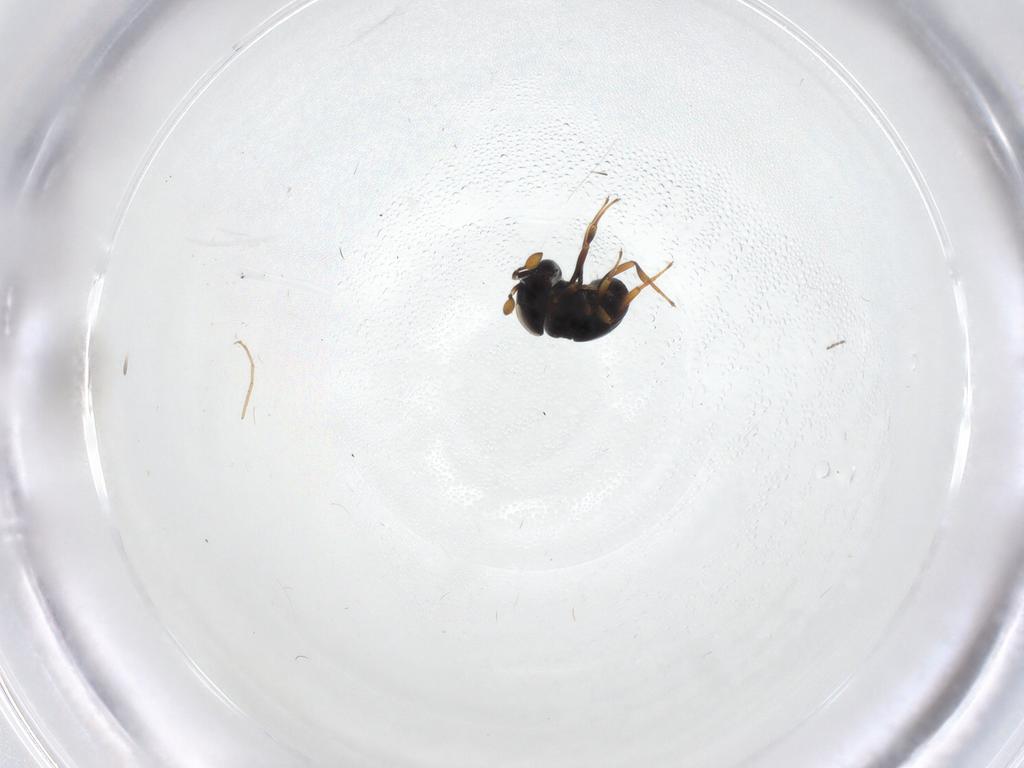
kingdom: Animalia
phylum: Arthropoda
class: Insecta
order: Hymenoptera
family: Scelionidae
